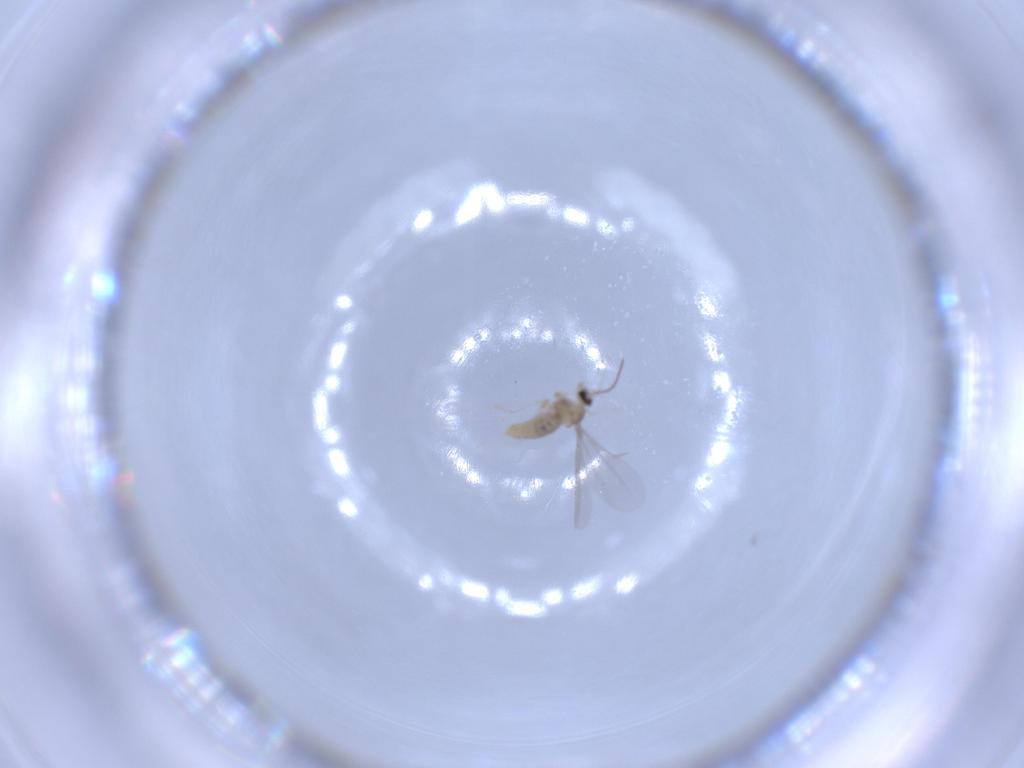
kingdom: Animalia
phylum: Arthropoda
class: Insecta
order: Diptera
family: Cecidomyiidae
